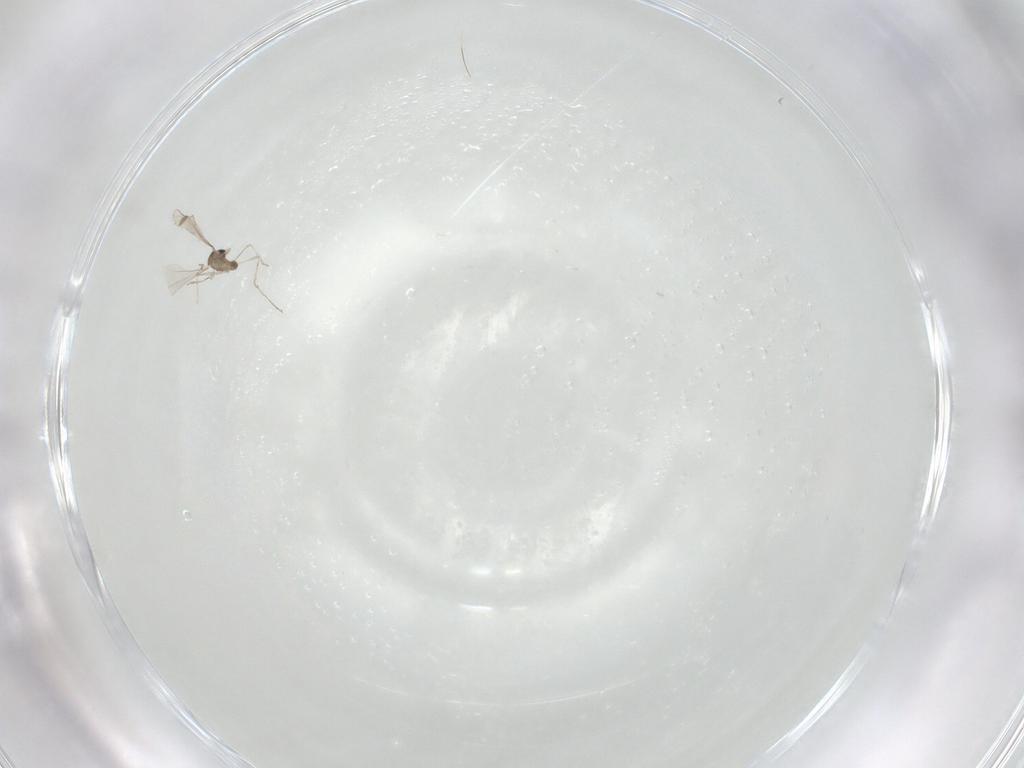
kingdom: Animalia
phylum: Arthropoda
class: Insecta
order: Diptera
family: Cecidomyiidae
